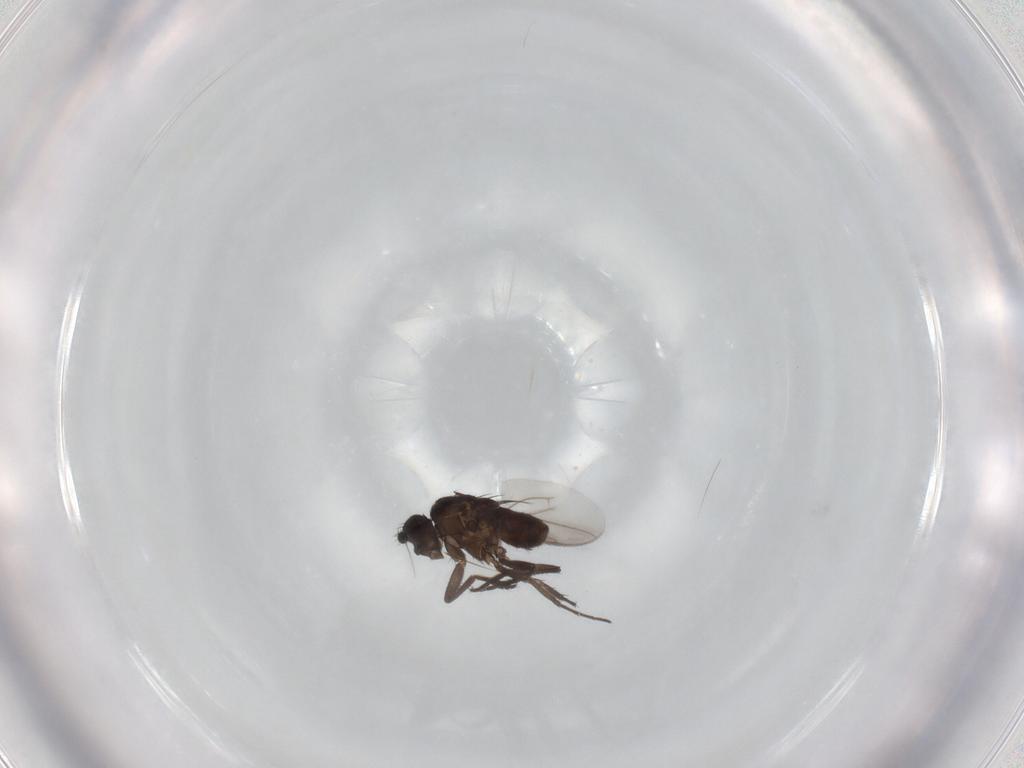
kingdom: Animalia
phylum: Arthropoda
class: Insecta
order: Diptera
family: Sphaeroceridae
